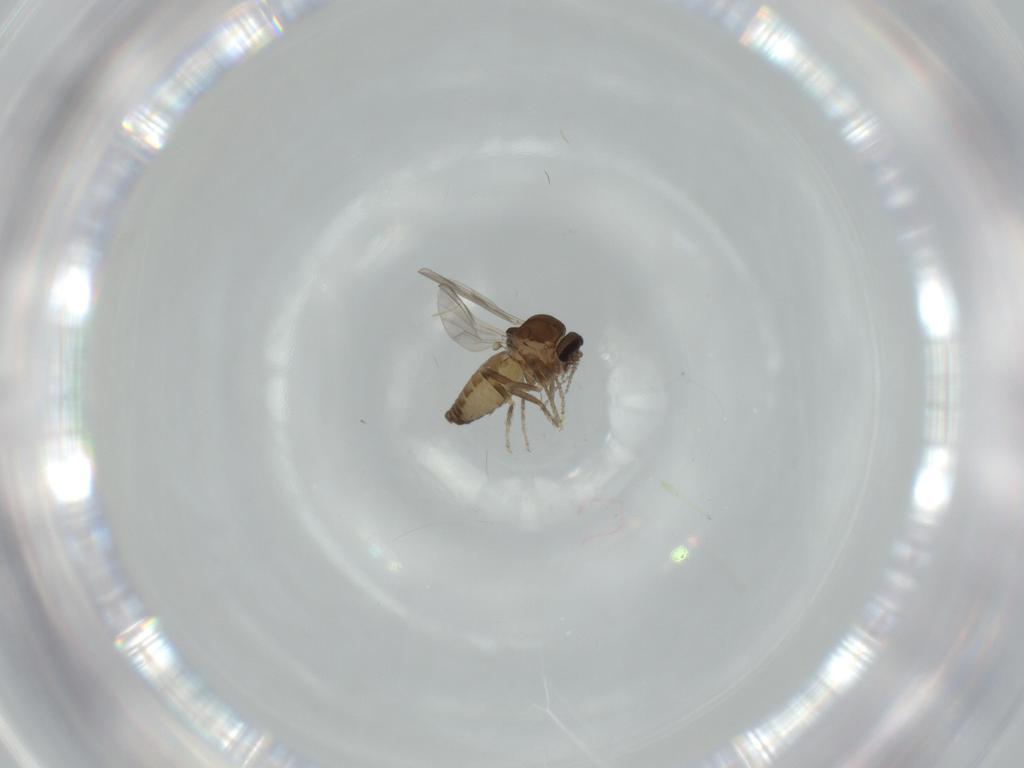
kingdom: Animalia
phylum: Arthropoda
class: Insecta
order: Diptera
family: Ceratopogonidae
